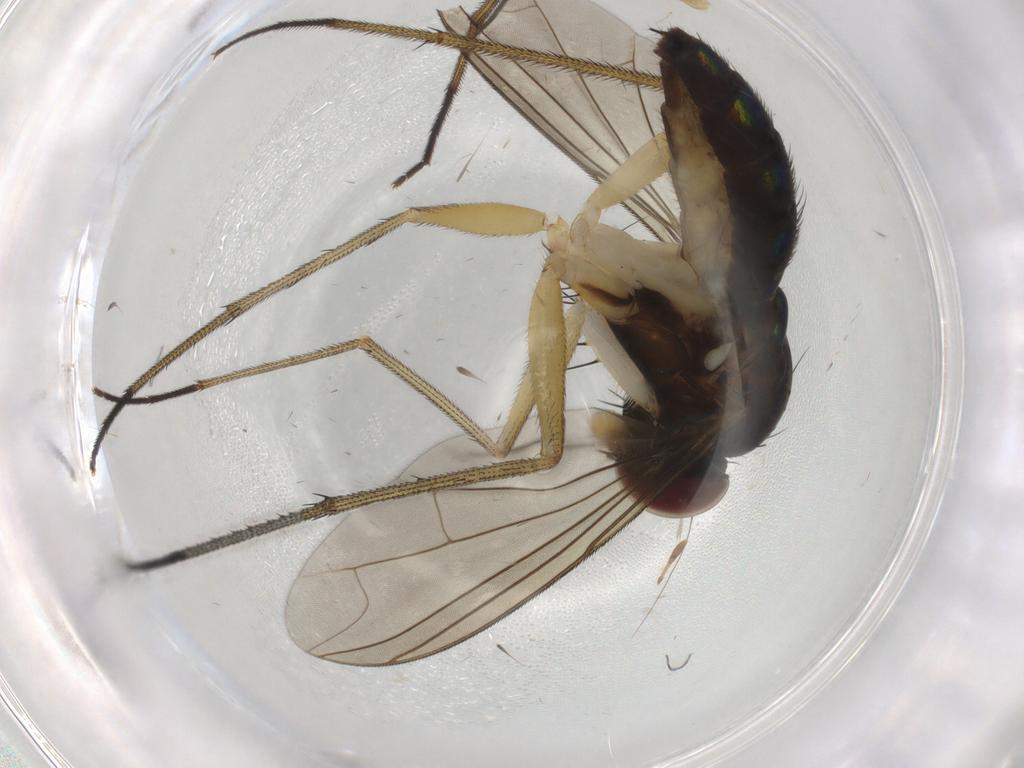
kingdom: Animalia
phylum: Arthropoda
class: Insecta
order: Diptera
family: Dolichopodidae
